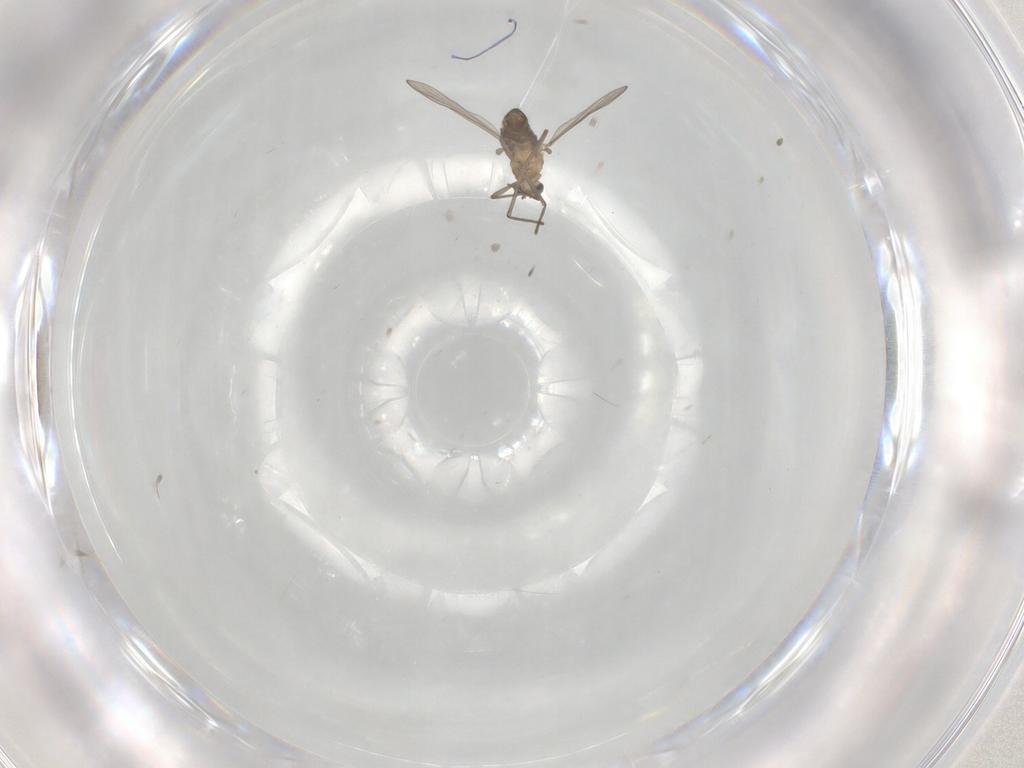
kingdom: Animalia
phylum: Arthropoda
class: Insecta
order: Diptera
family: Chironomidae
